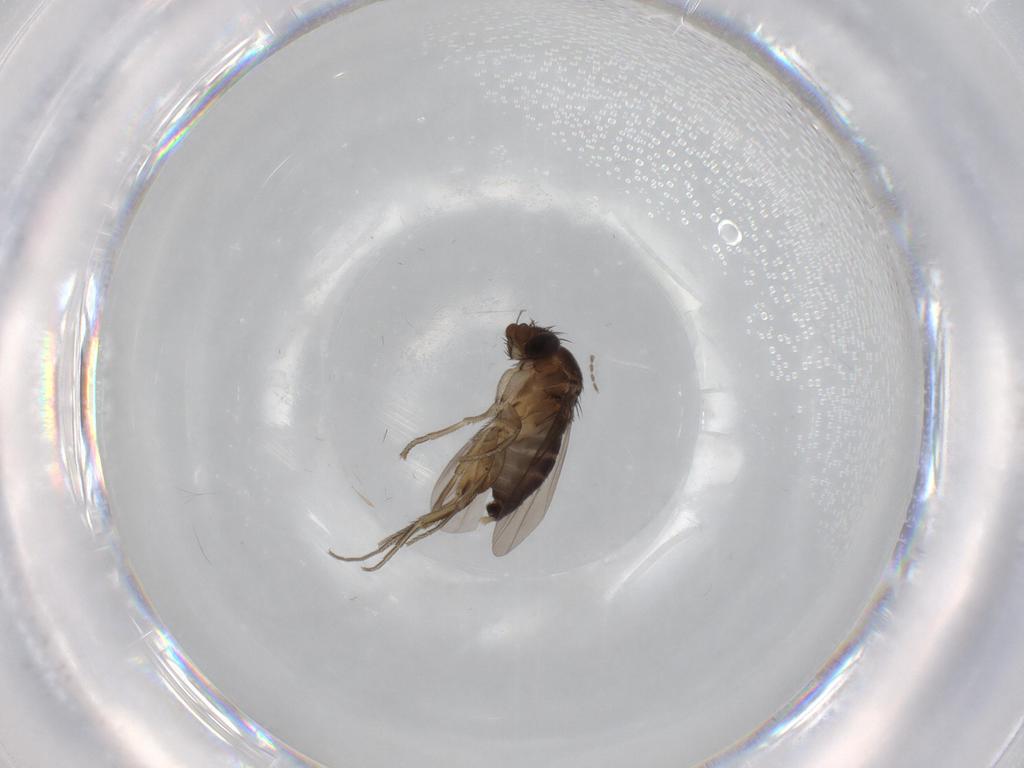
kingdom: Animalia
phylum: Arthropoda
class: Insecta
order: Diptera
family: Phoridae
